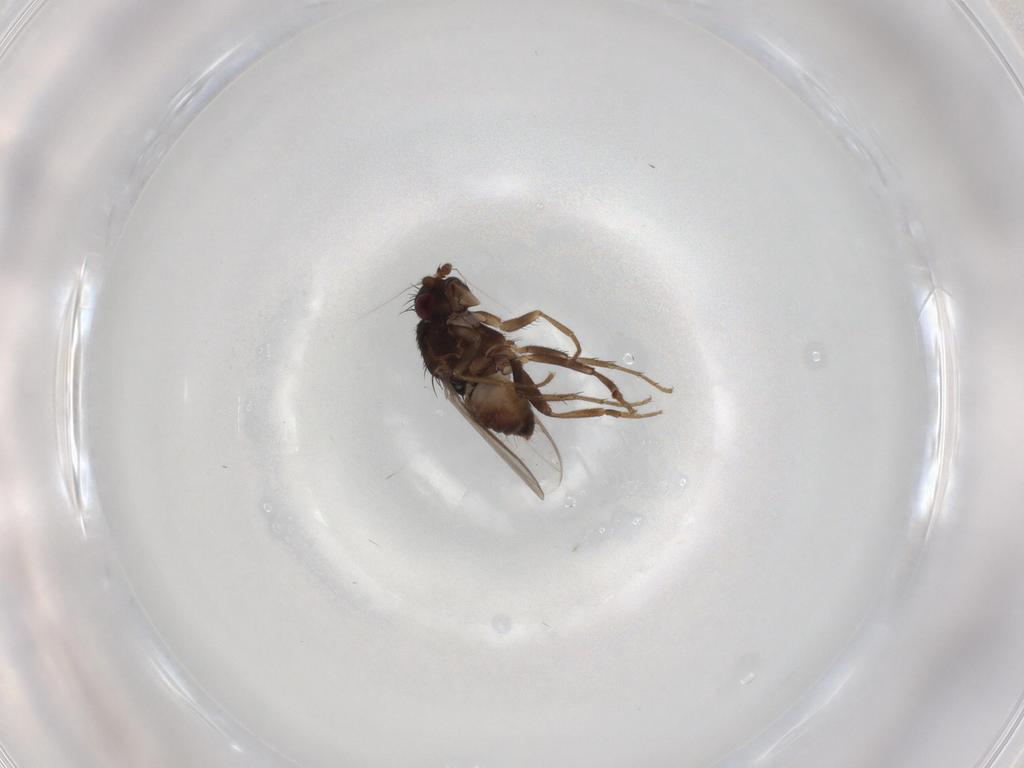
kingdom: Animalia
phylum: Arthropoda
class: Insecta
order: Diptera
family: Sphaeroceridae
